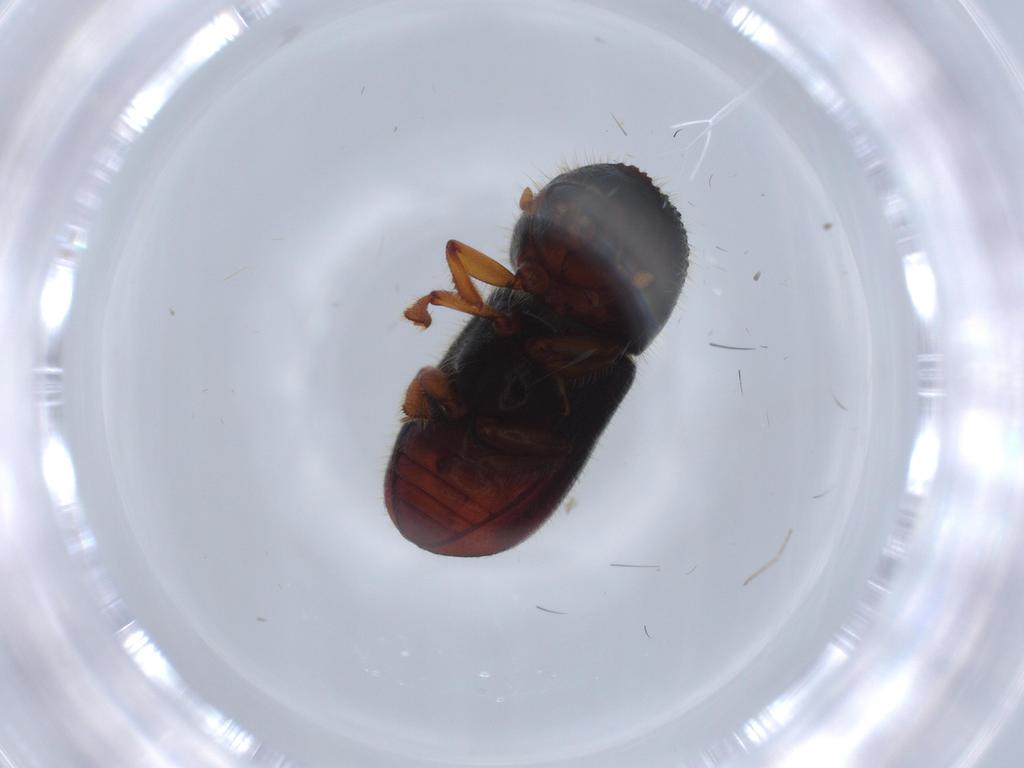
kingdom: Animalia
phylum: Arthropoda
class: Insecta
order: Coleoptera
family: Curculionidae
